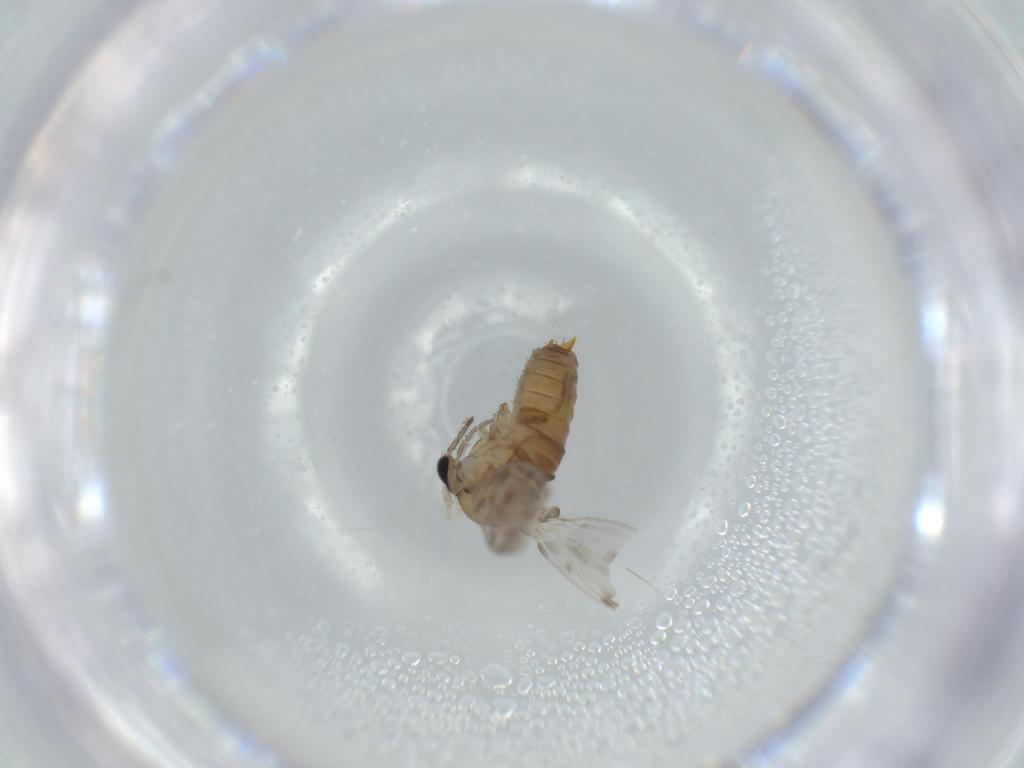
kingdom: Animalia
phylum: Arthropoda
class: Insecta
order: Diptera
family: Psychodidae
